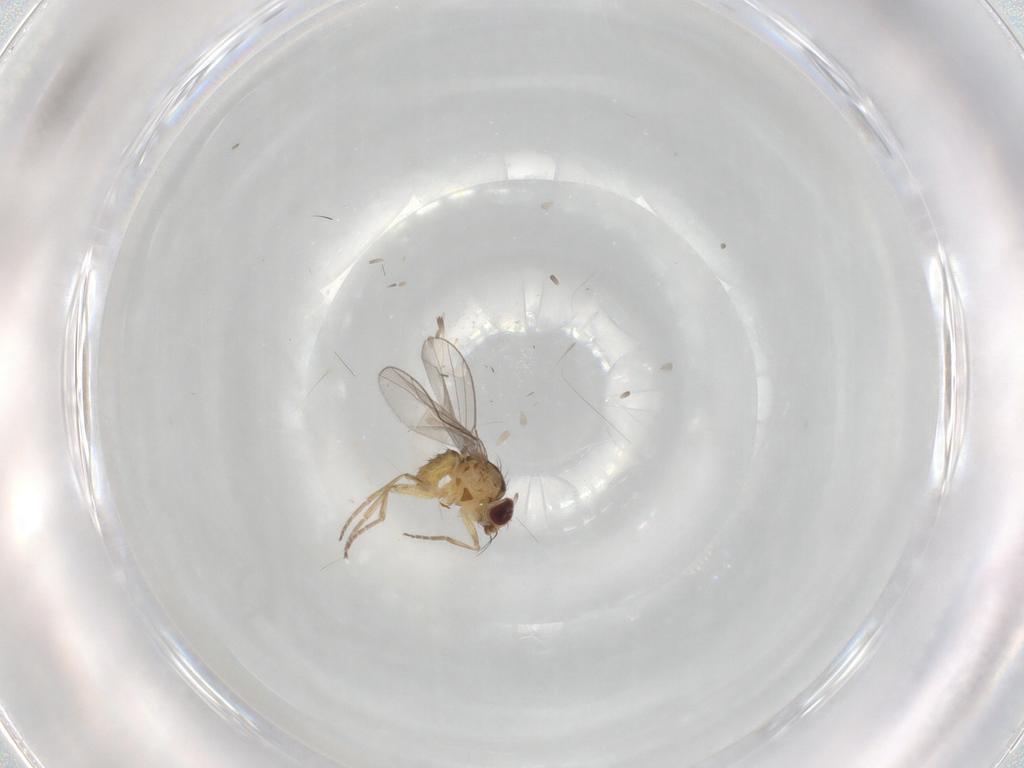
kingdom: Animalia
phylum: Arthropoda
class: Insecta
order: Diptera
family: Agromyzidae
